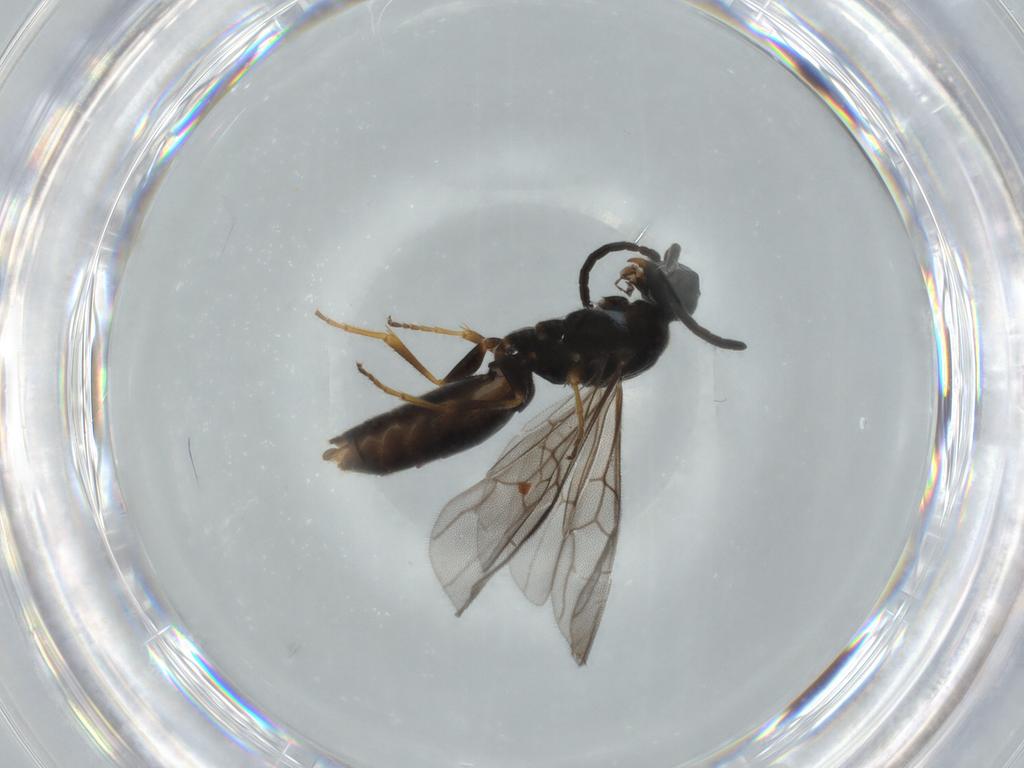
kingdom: Animalia
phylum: Arthropoda
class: Insecta
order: Hymenoptera
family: Sierolomorphidae
